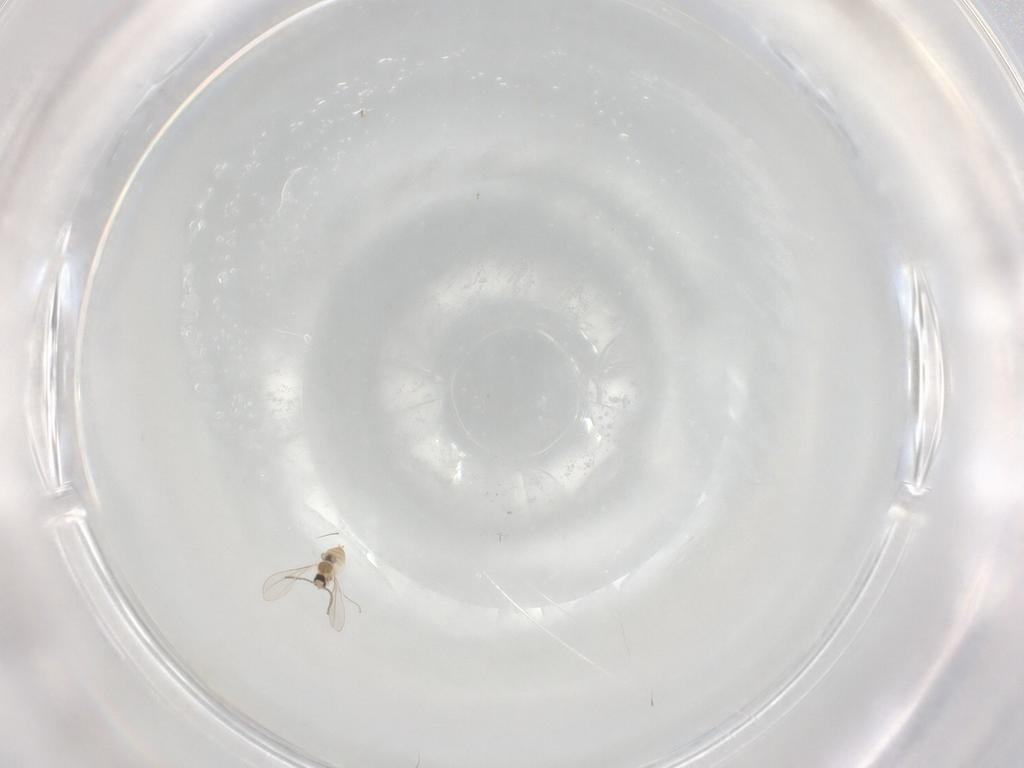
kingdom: Animalia
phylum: Arthropoda
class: Insecta
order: Diptera
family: Cecidomyiidae
